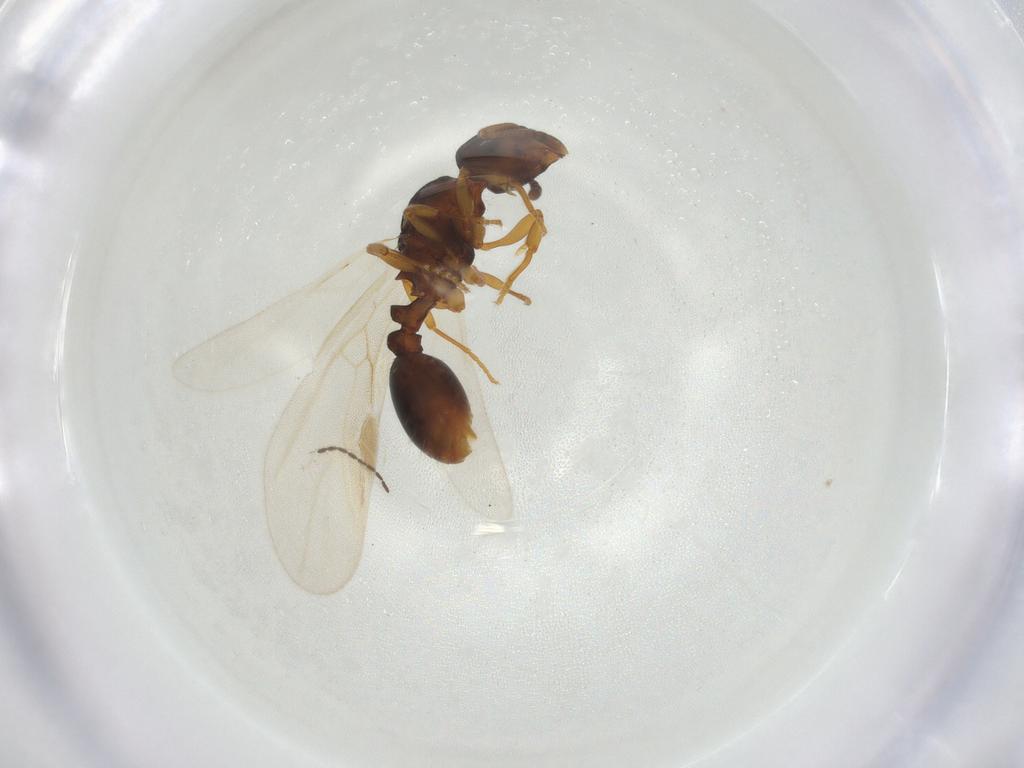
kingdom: Animalia
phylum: Arthropoda
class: Insecta
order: Hymenoptera
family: Formicidae
